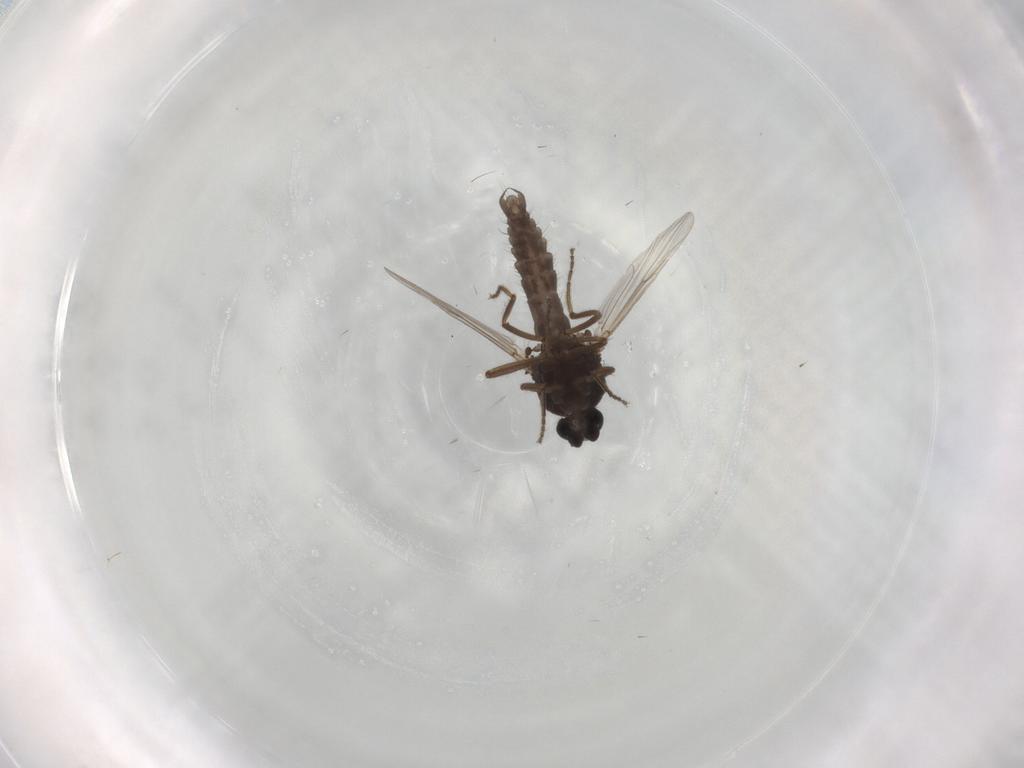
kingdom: Animalia
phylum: Arthropoda
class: Insecta
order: Diptera
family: Ceratopogonidae
